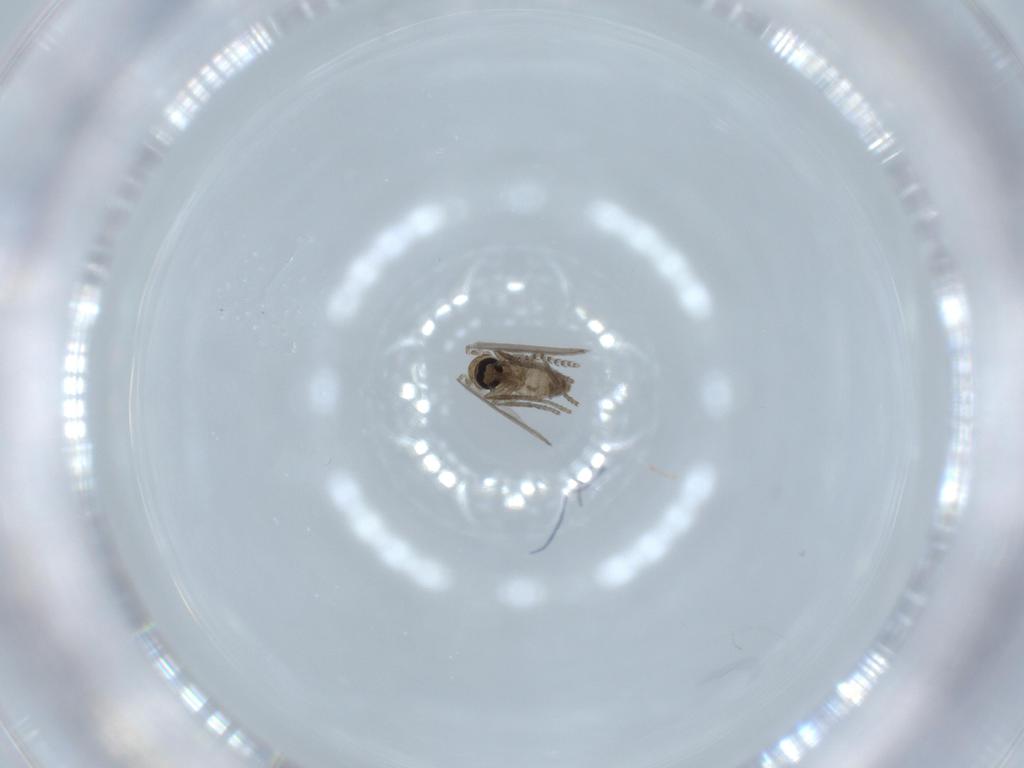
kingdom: Animalia
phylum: Arthropoda
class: Insecta
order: Diptera
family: Psychodidae
